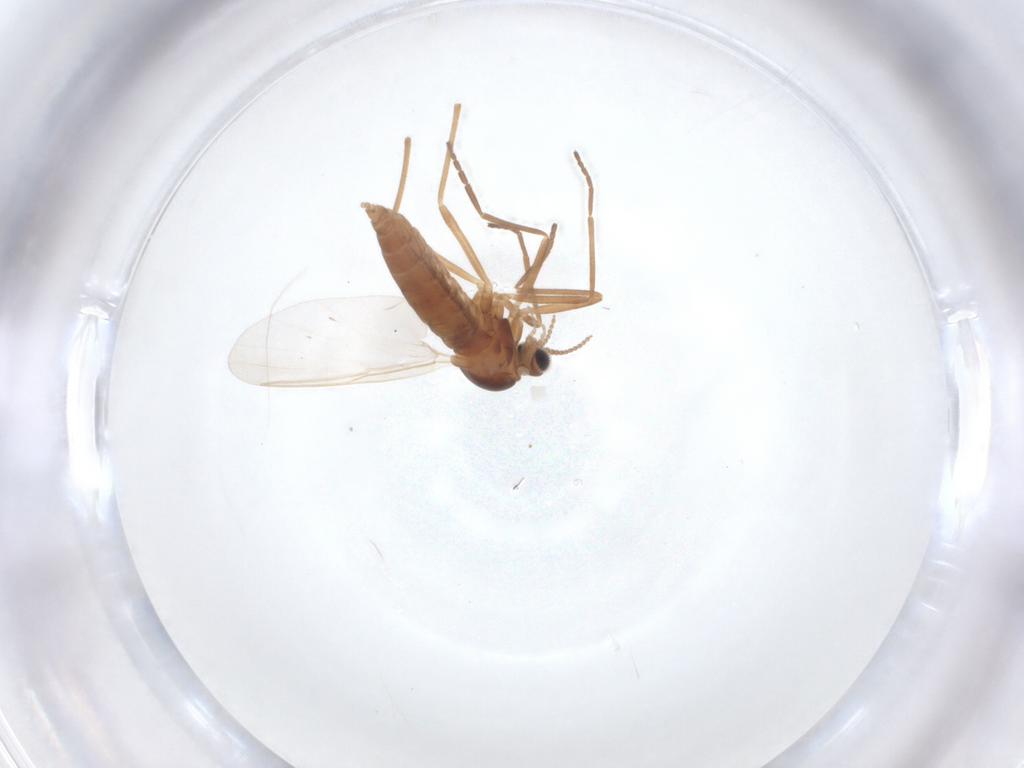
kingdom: Animalia
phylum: Arthropoda
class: Insecta
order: Diptera
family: Cecidomyiidae
